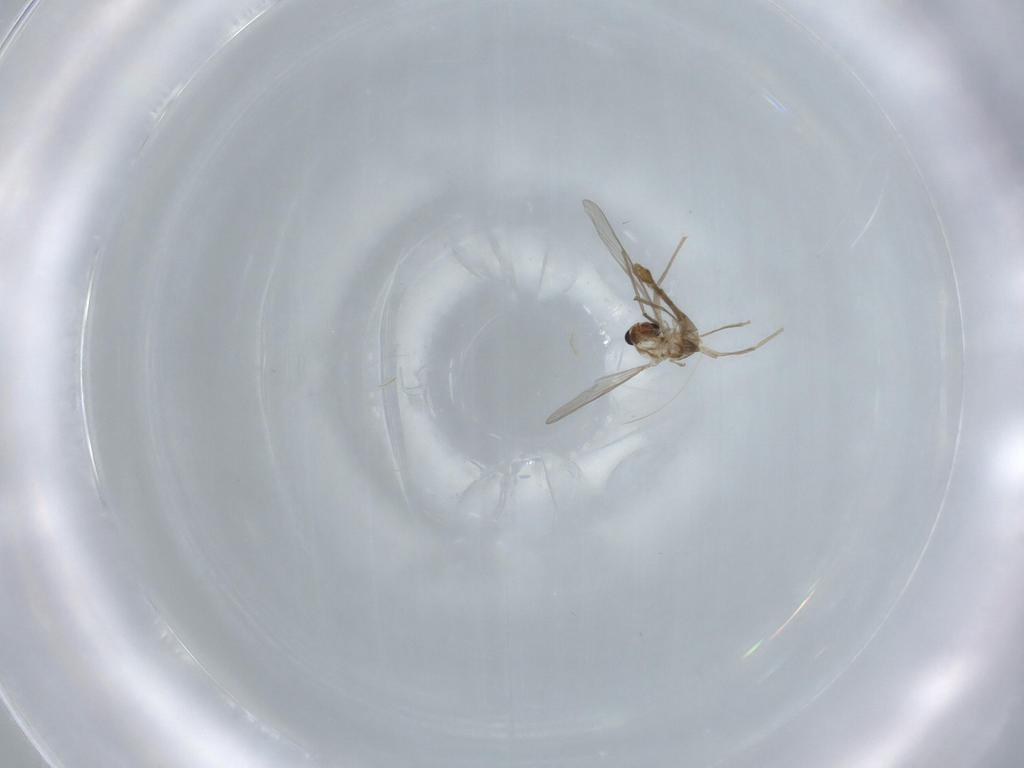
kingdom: Animalia
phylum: Arthropoda
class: Insecta
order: Diptera
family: Chironomidae
